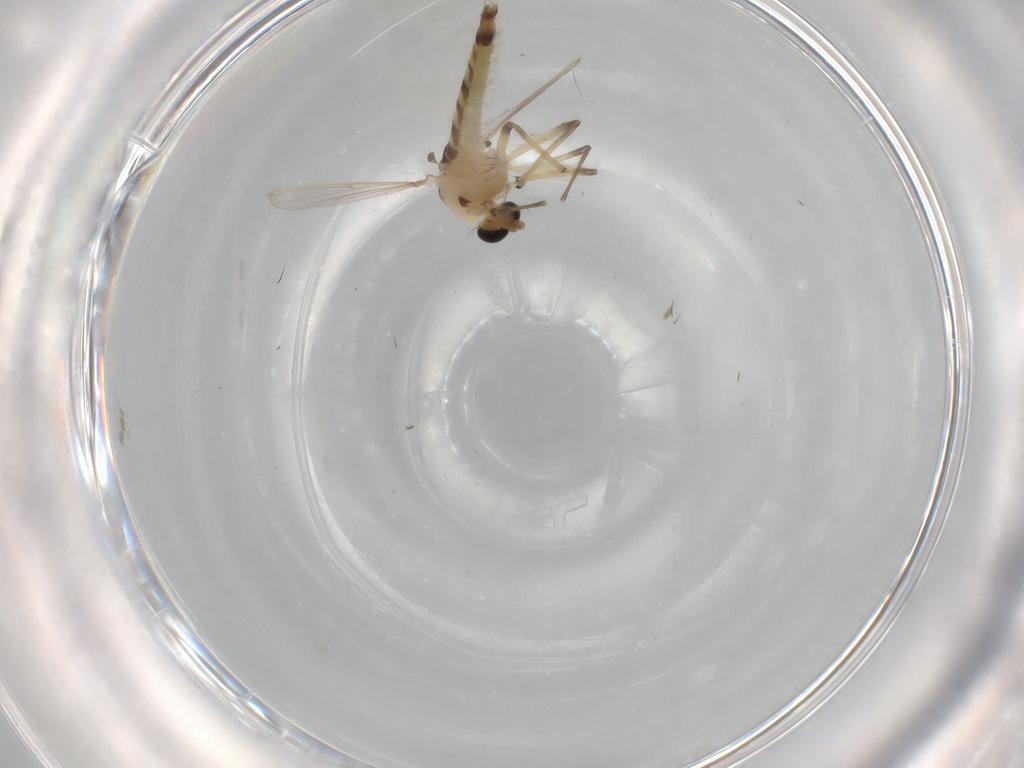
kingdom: Animalia
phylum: Arthropoda
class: Insecta
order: Diptera
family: Chironomidae
